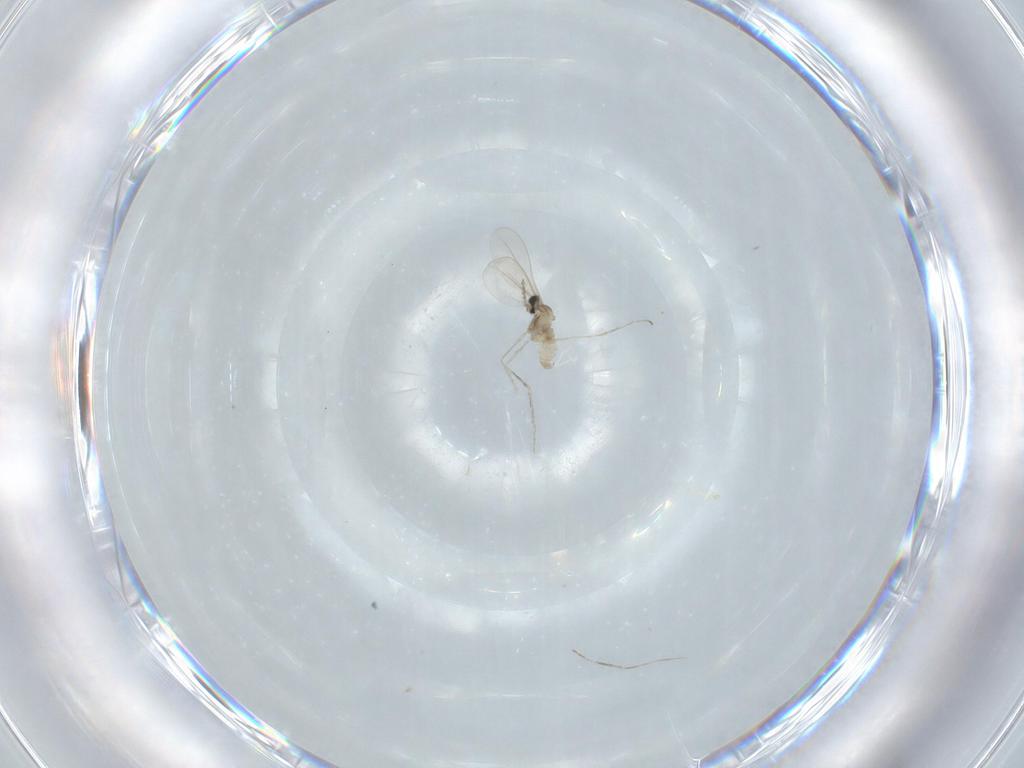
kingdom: Animalia
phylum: Arthropoda
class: Insecta
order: Diptera
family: Cecidomyiidae
